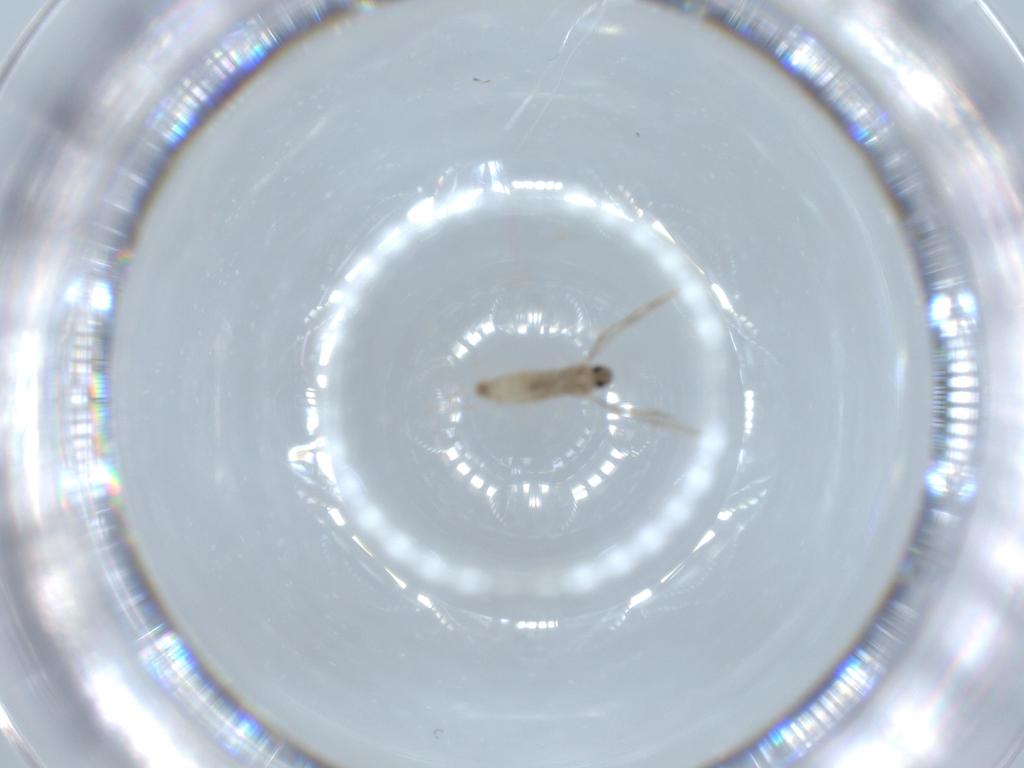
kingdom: Animalia
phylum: Arthropoda
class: Insecta
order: Diptera
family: Cecidomyiidae
